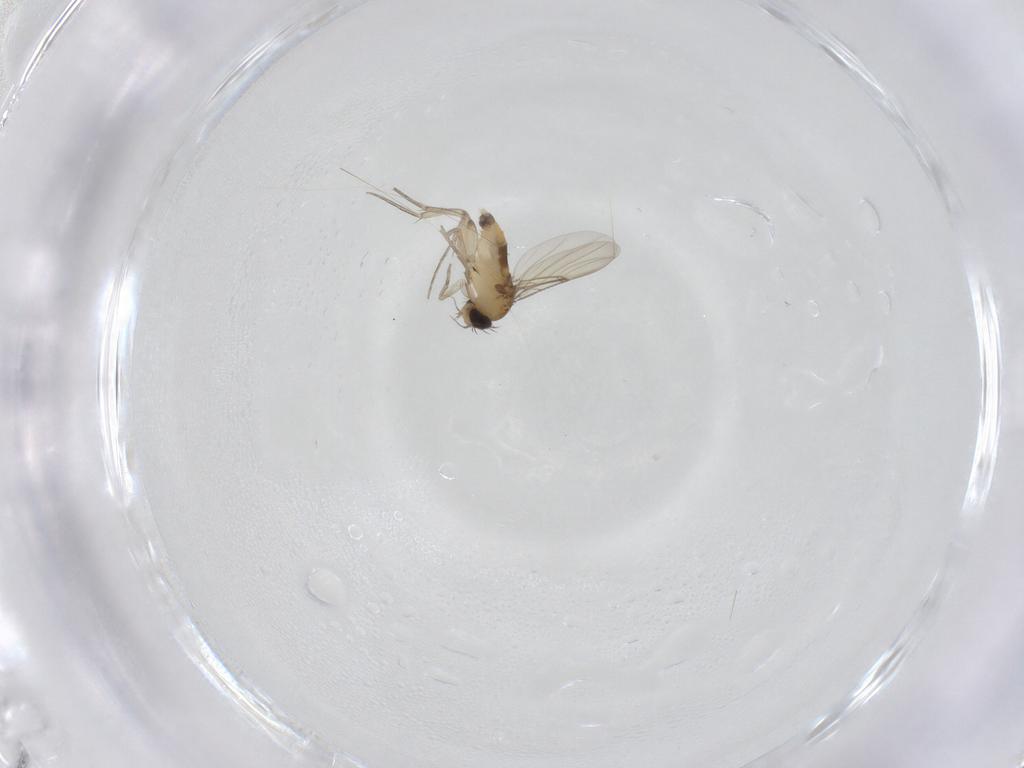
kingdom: Animalia
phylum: Arthropoda
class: Insecta
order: Diptera
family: Phoridae
